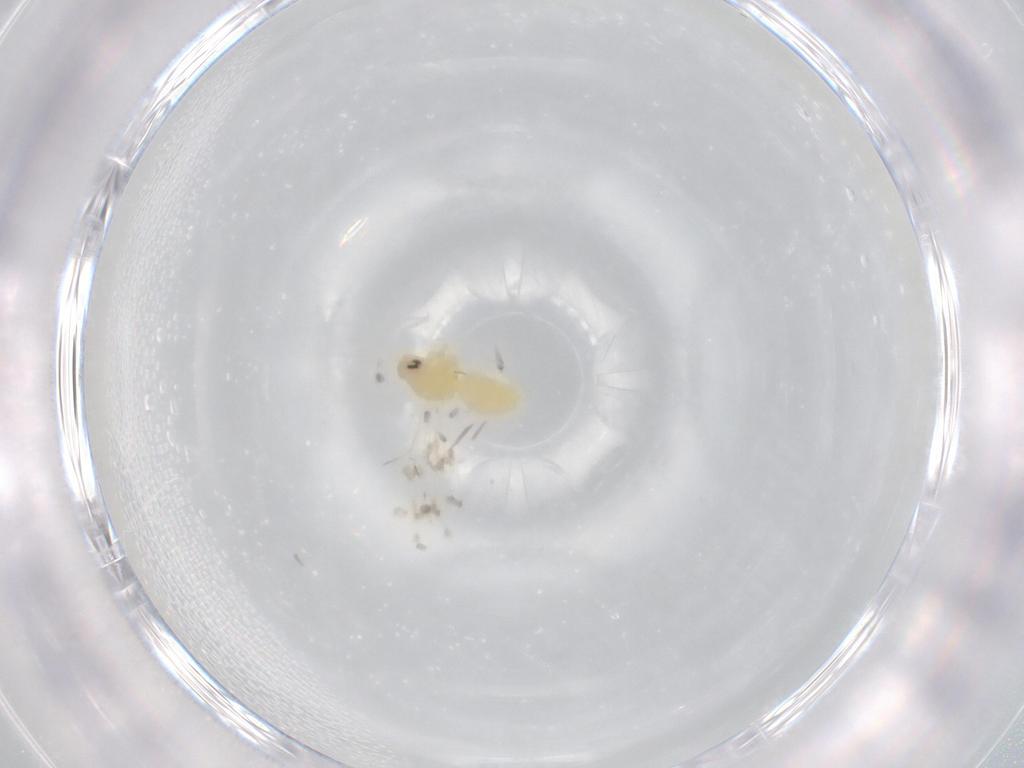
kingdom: Animalia
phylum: Arthropoda
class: Insecta
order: Hemiptera
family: Aleyrodidae
